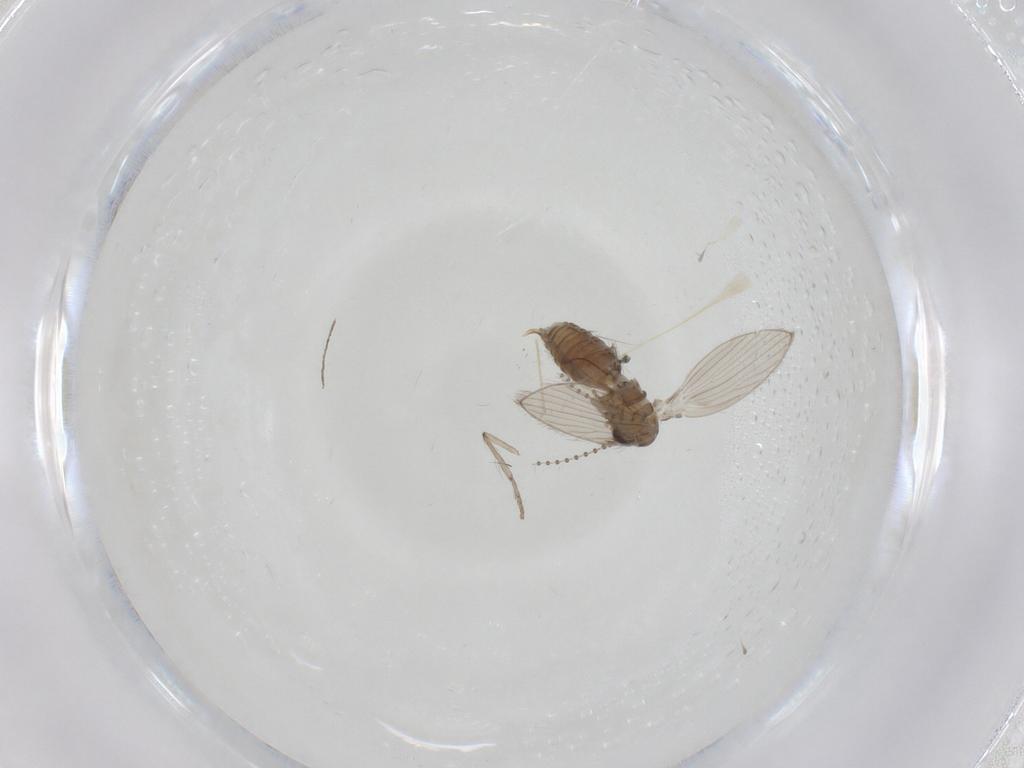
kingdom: Animalia
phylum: Arthropoda
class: Insecta
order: Diptera
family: Psychodidae
